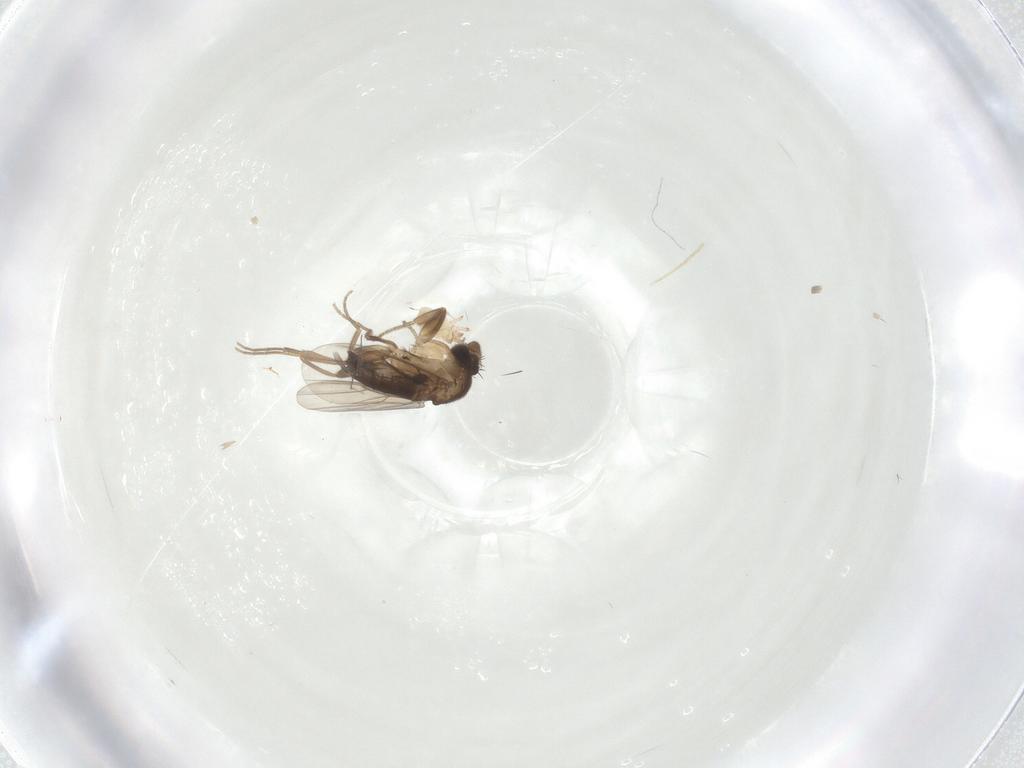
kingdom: Animalia
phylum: Arthropoda
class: Insecta
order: Diptera
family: Phoridae
